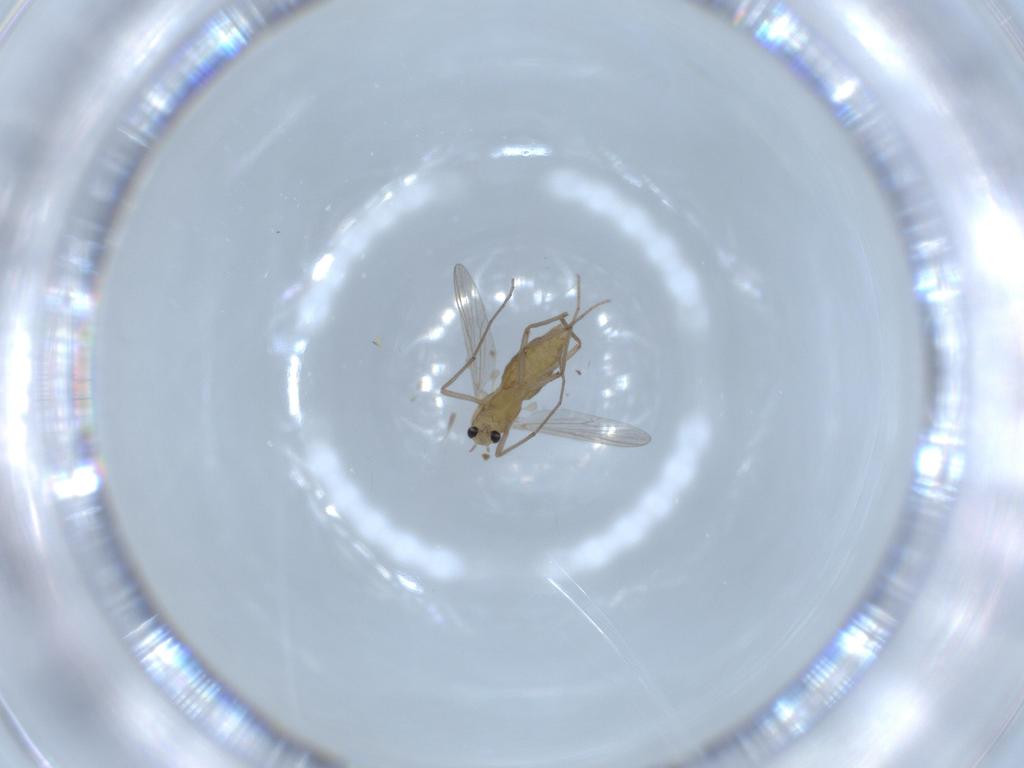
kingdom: Animalia
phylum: Arthropoda
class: Insecta
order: Diptera
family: Chironomidae
